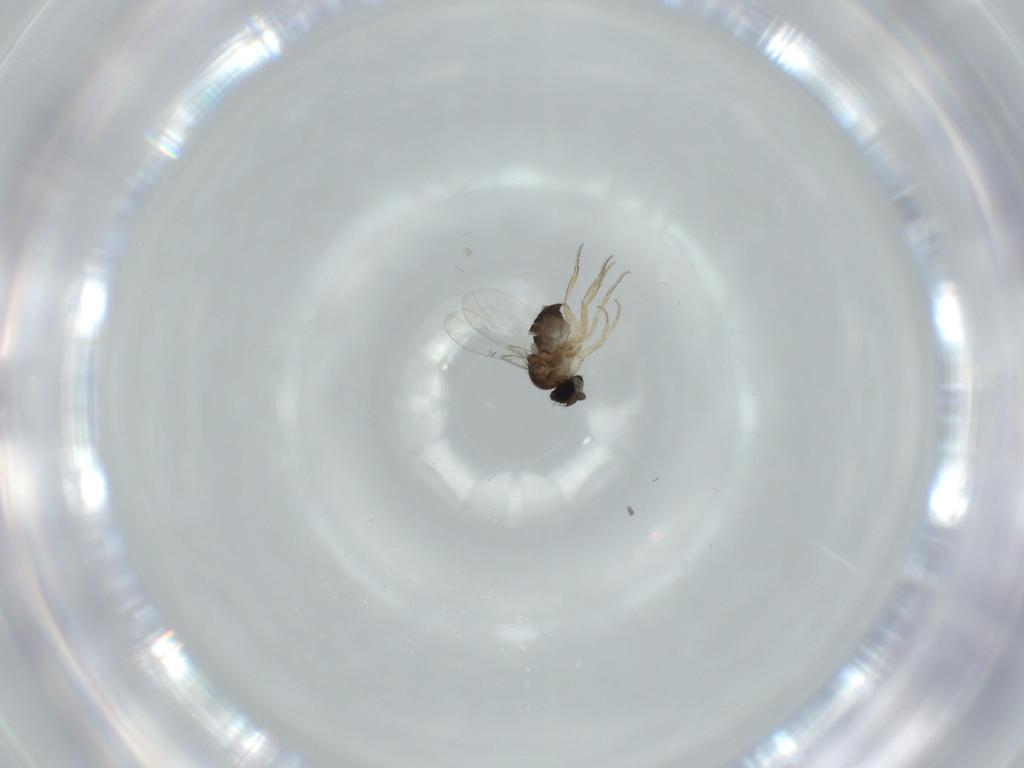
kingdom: Animalia
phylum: Arthropoda
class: Insecta
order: Diptera
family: Phoridae
